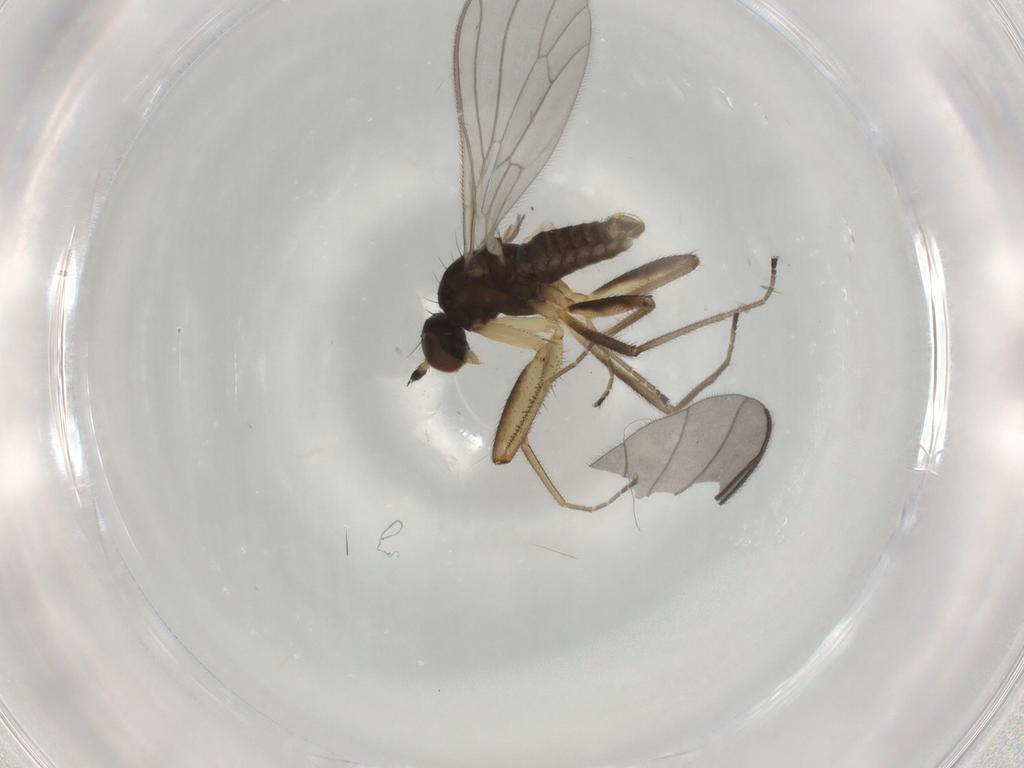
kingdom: Animalia
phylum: Arthropoda
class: Insecta
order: Diptera
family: Empididae
